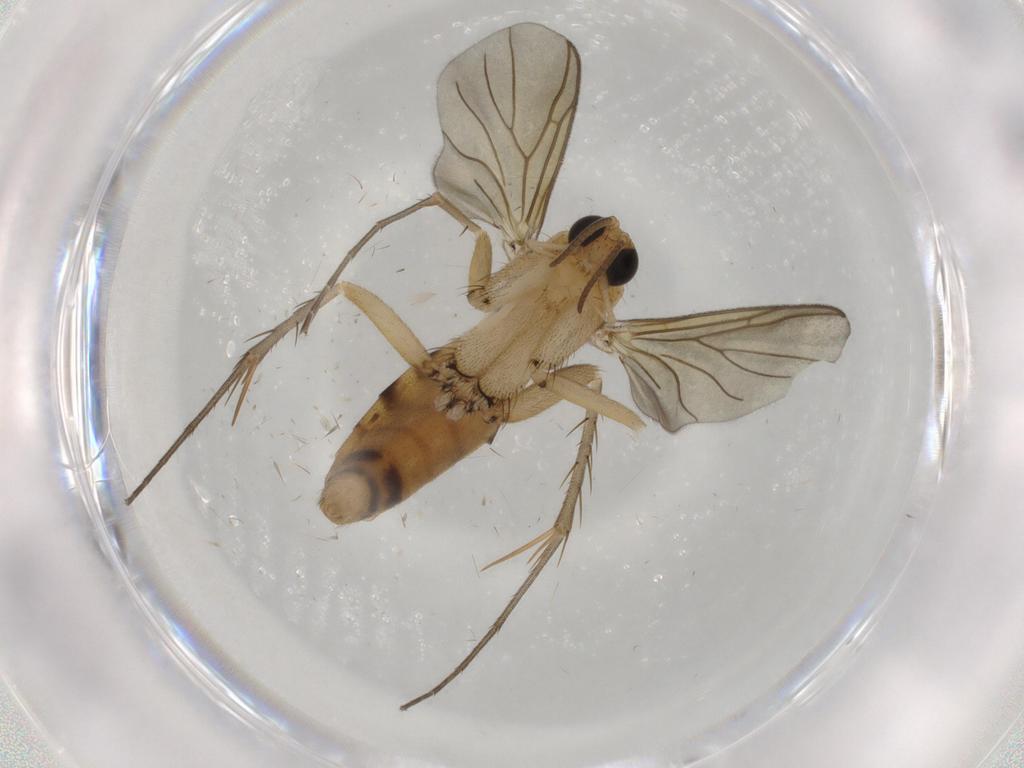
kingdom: Animalia
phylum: Arthropoda
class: Insecta
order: Diptera
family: Mycetophilidae
